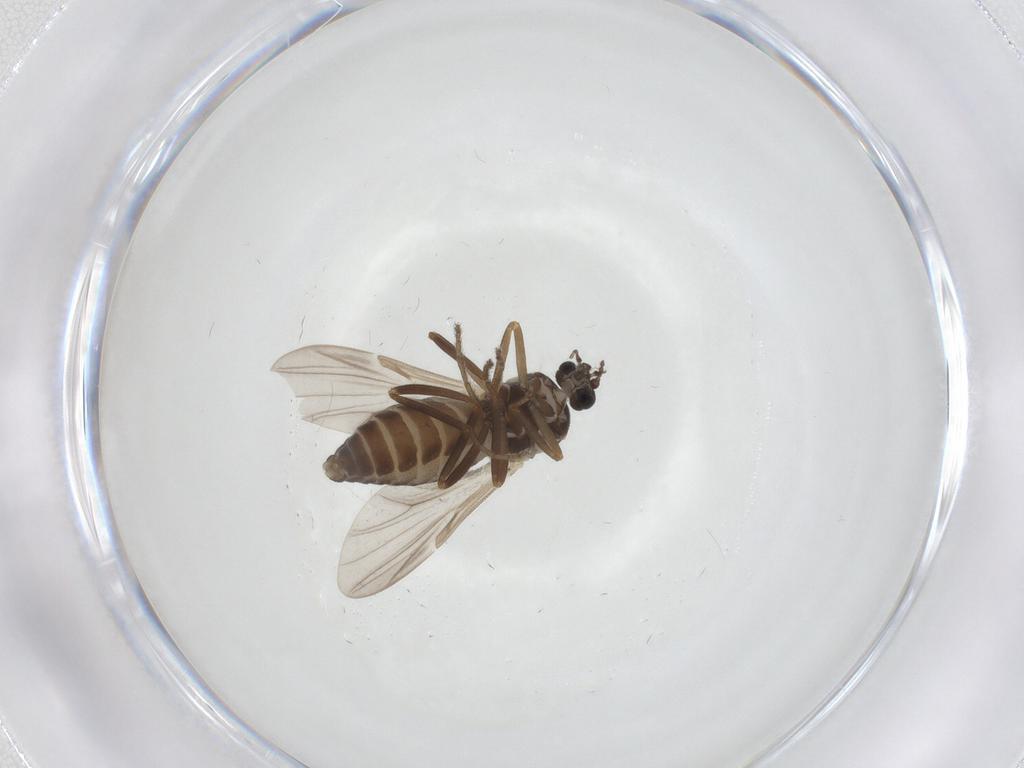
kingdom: Animalia
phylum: Arthropoda
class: Insecta
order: Diptera
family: Ceratopogonidae
